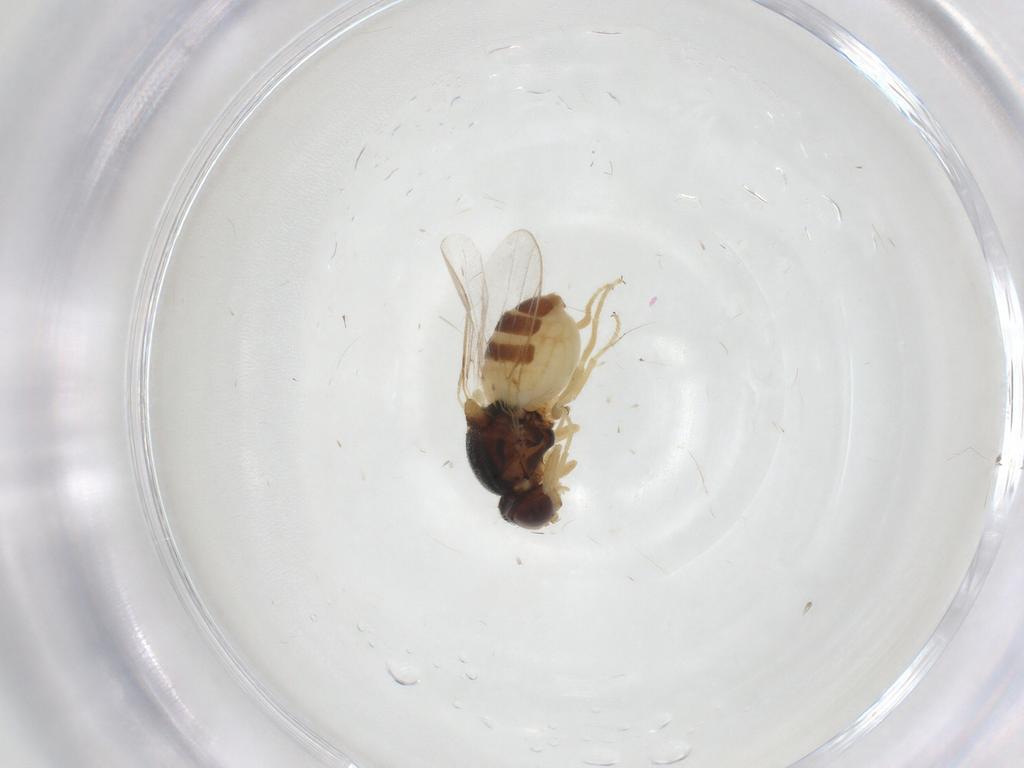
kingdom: Animalia
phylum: Arthropoda
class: Insecta
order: Diptera
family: Chloropidae
